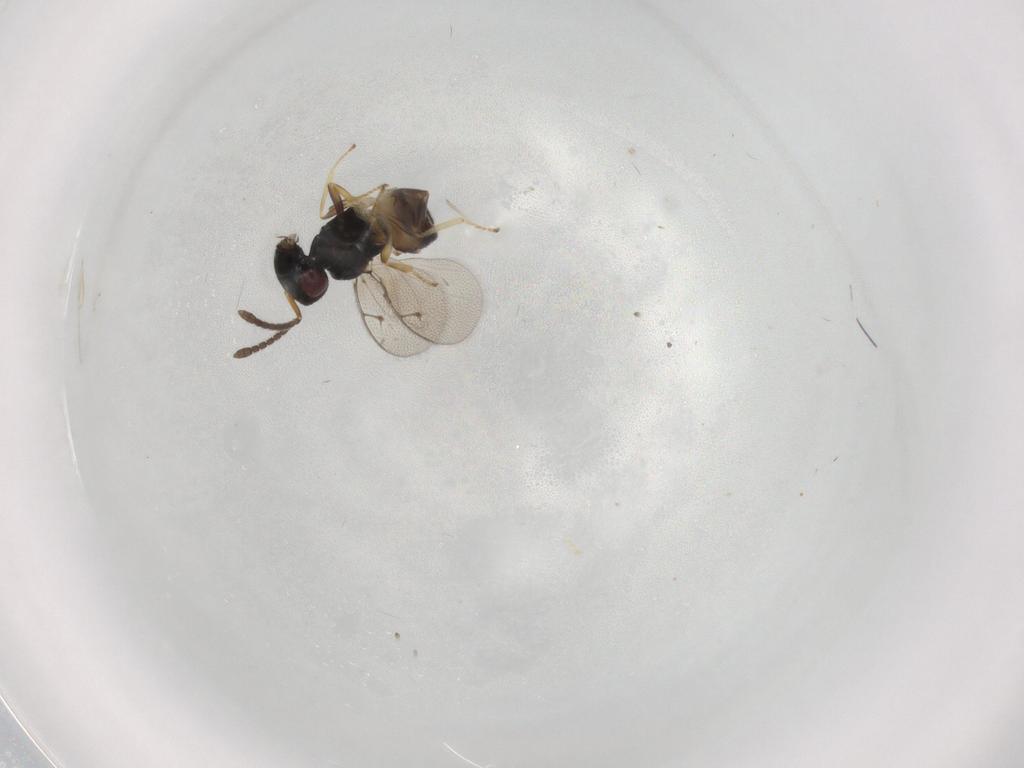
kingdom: Animalia
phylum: Arthropoda
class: Insecta
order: Hymenoptera
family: Pteromalidae
